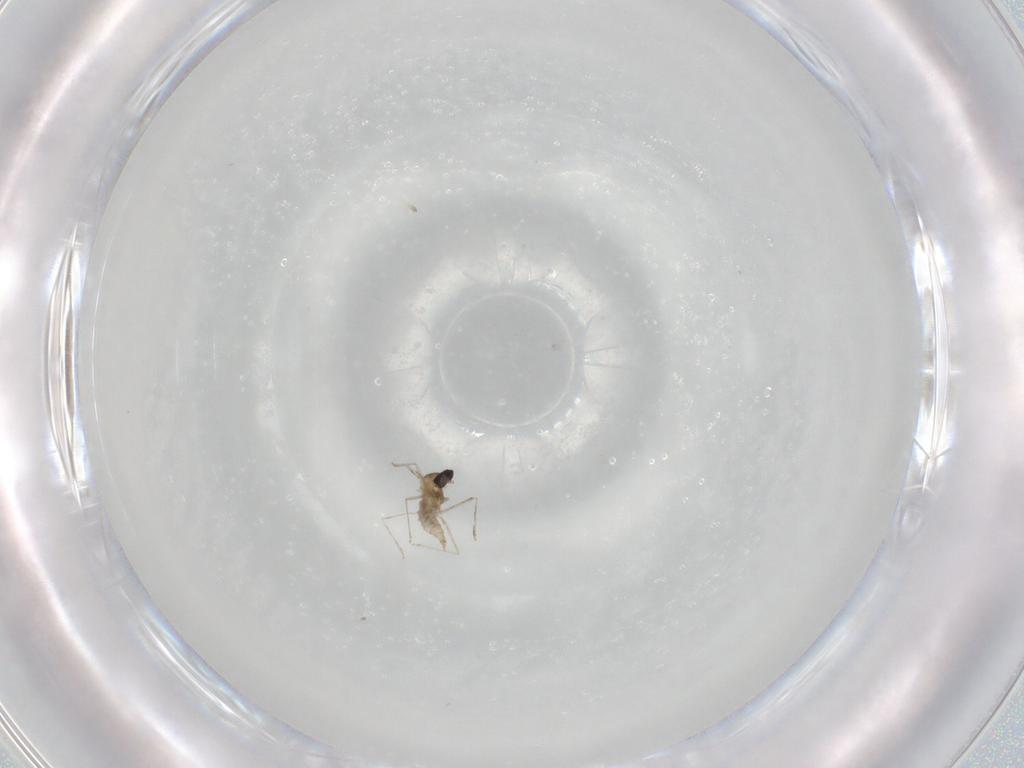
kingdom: Animalia
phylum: Arthropoda
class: Insecta
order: Diptera
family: Cecidomyiidae
